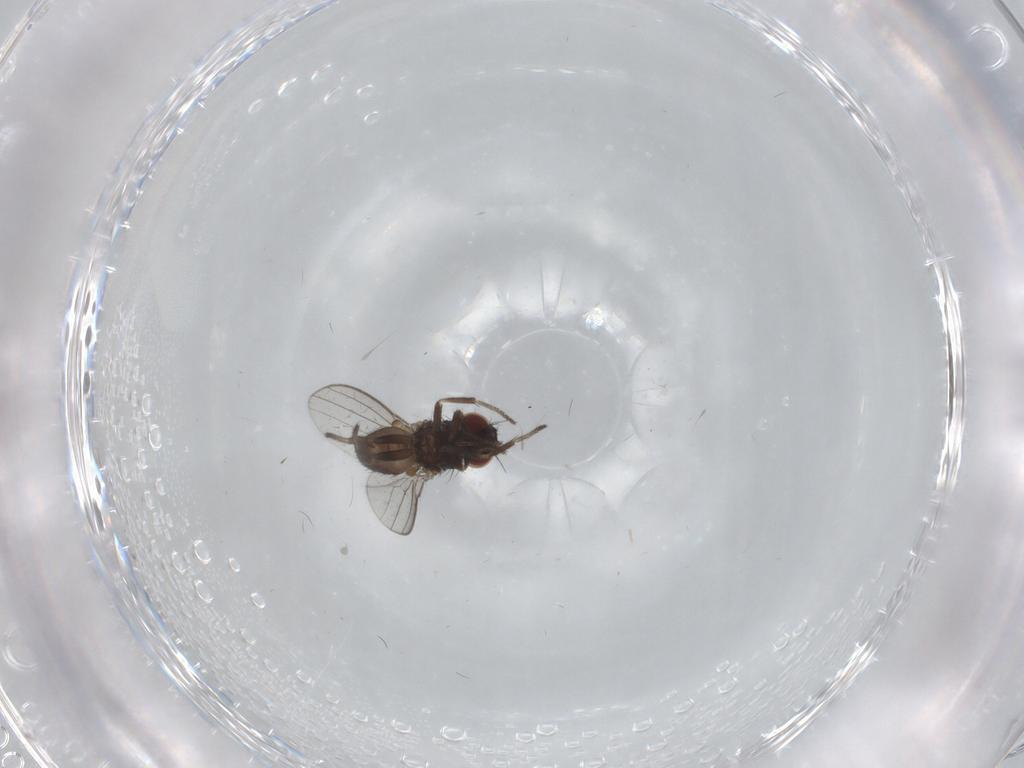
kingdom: Animalia
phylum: Arthropoda
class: Insecta
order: Diptera
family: Milichiidae
